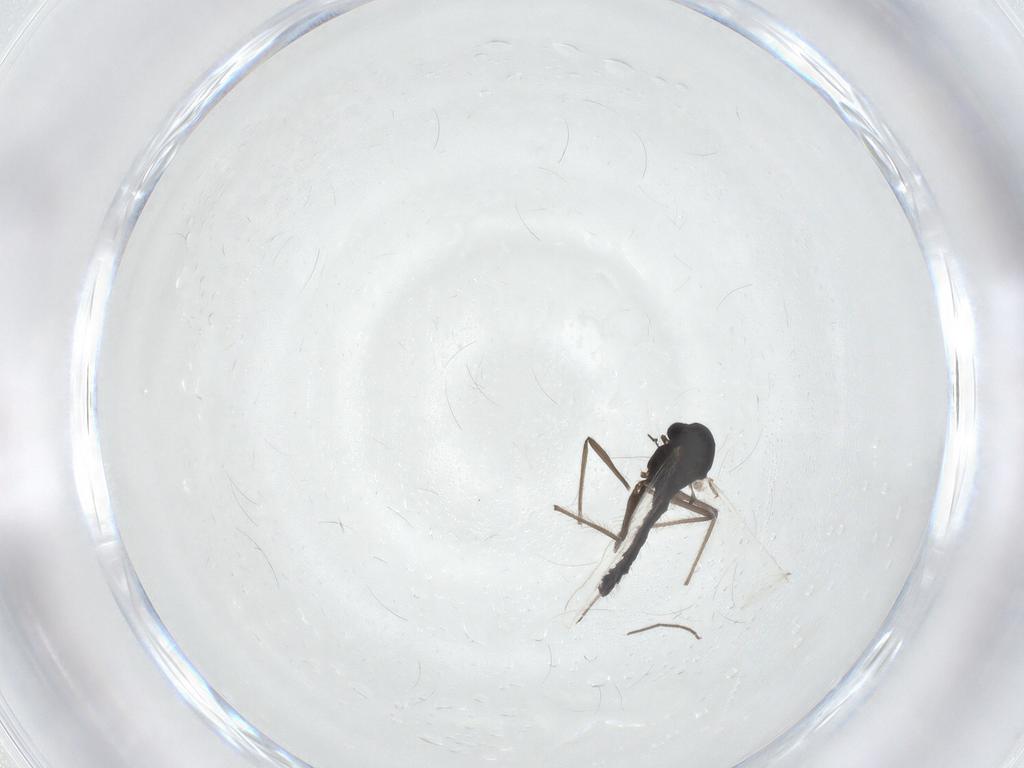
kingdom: Animalia
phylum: Arthropoda
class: Insecta
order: Diptera
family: Chironomidae
